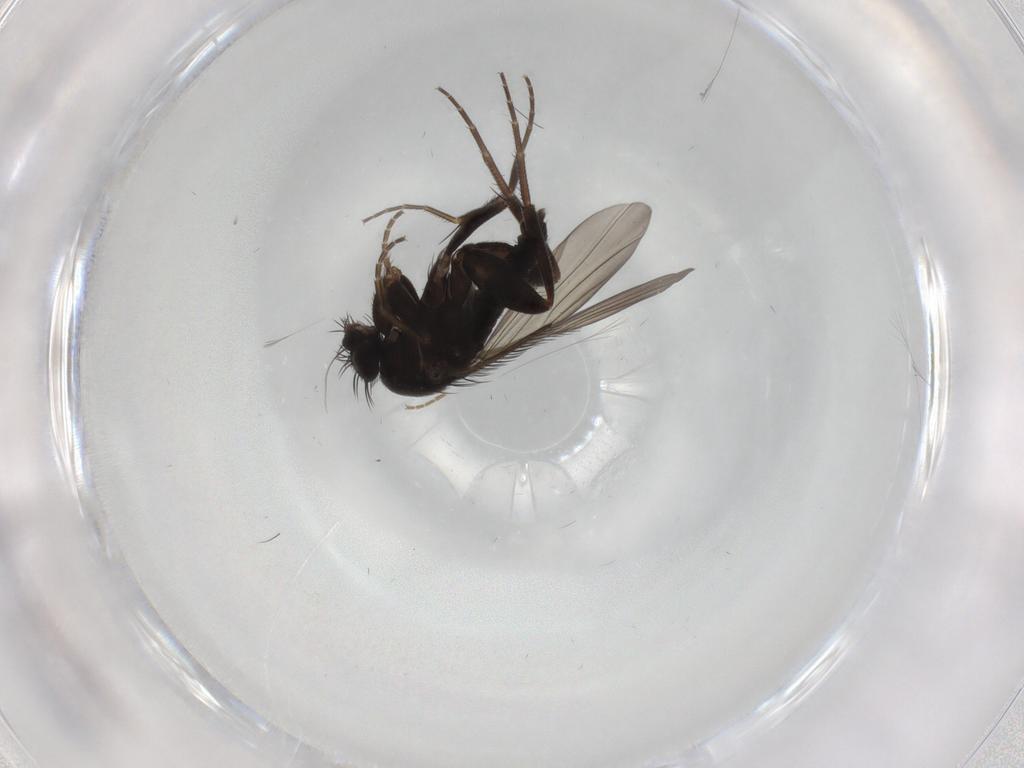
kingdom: Animalia
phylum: Arthropoda
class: Insecta
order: Diptera
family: Phoridae
